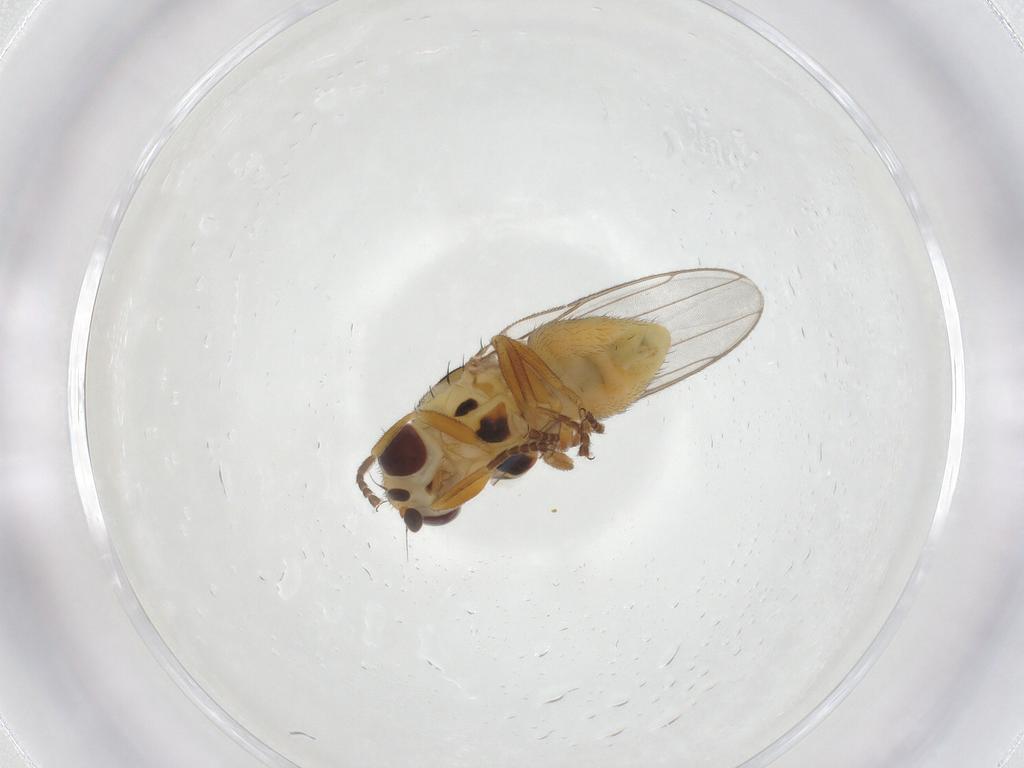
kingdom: Animalia
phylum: Arthropoda
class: Insecta
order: Diptera
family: Chloropidae
